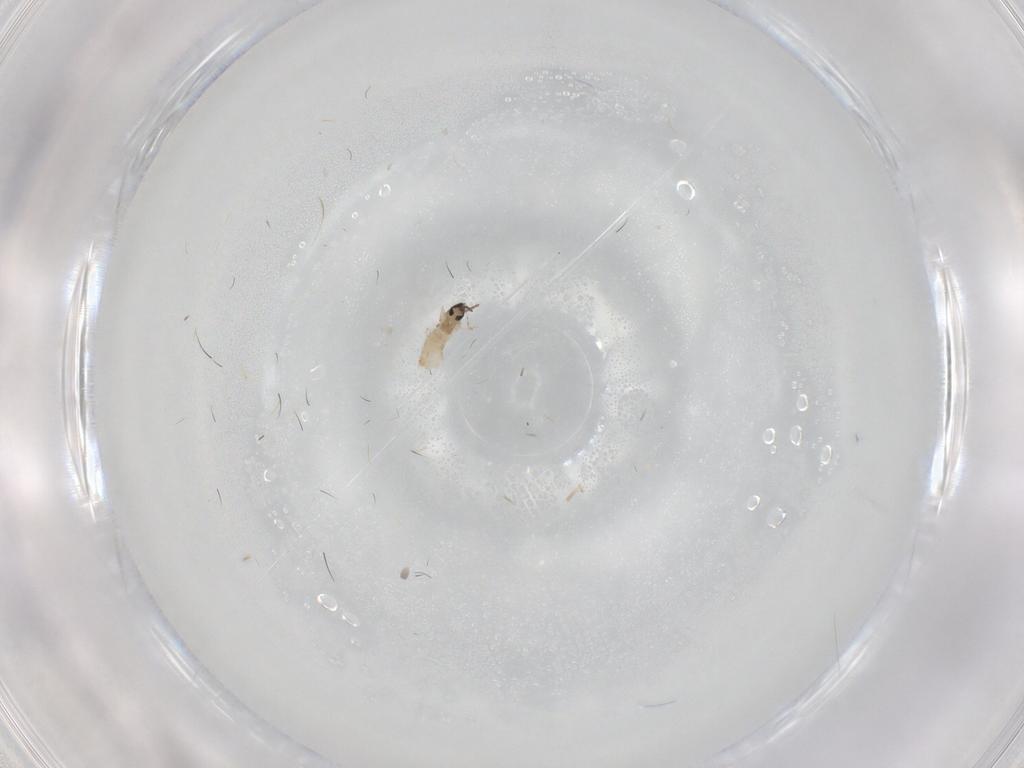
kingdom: Animalia
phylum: Arthropoda
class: Insecta
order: Diptera
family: Cecidomyiidae
